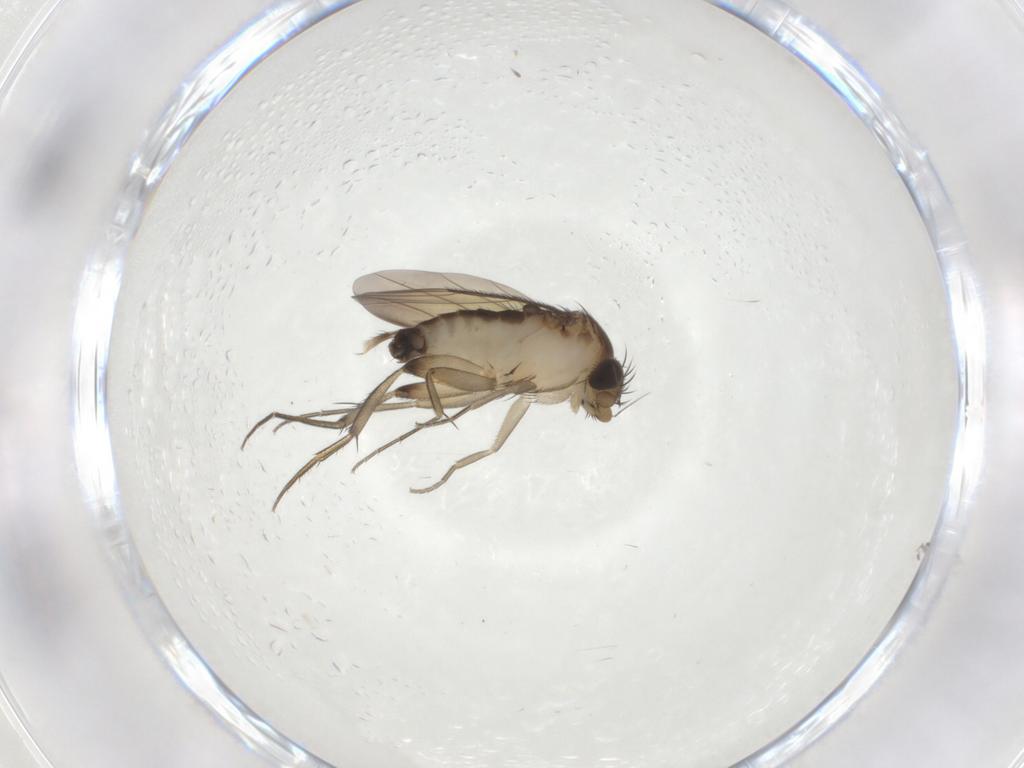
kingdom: Animalia
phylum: Arthropoda
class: Insecta
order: Diptera
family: Phoridae
